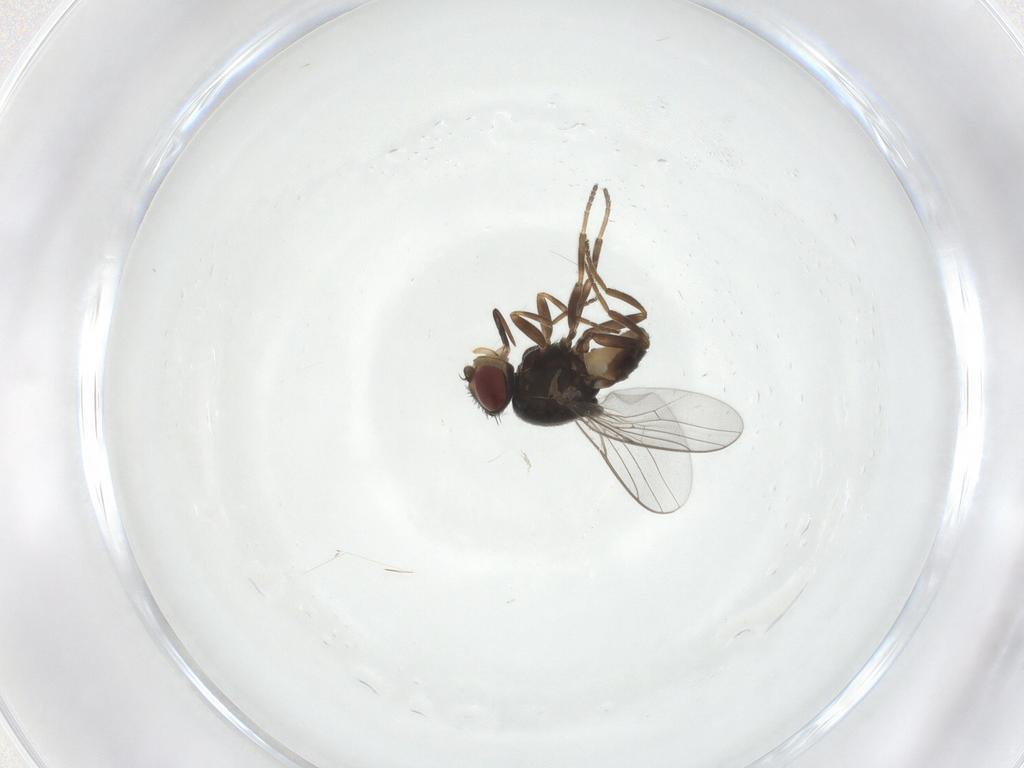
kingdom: Animalia
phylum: Arthropoda
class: Insecta
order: Diptera
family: Chloropidae
